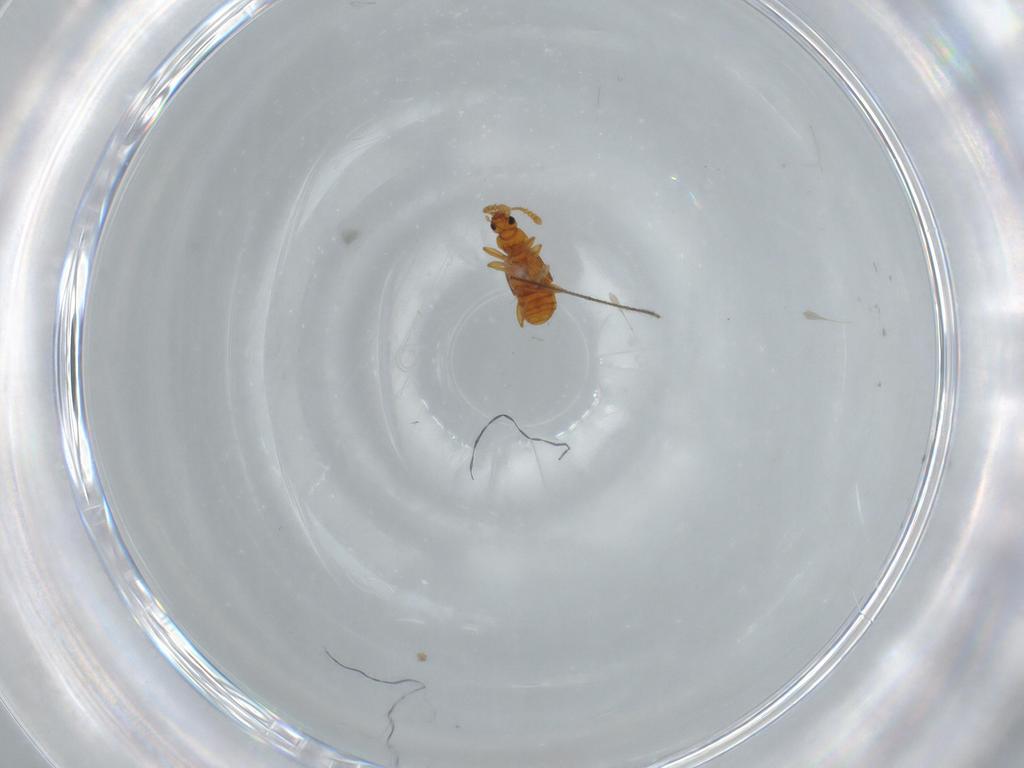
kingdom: Animalia
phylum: Arthropoda
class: Insecta
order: Coleoptera
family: Staphylinidae
